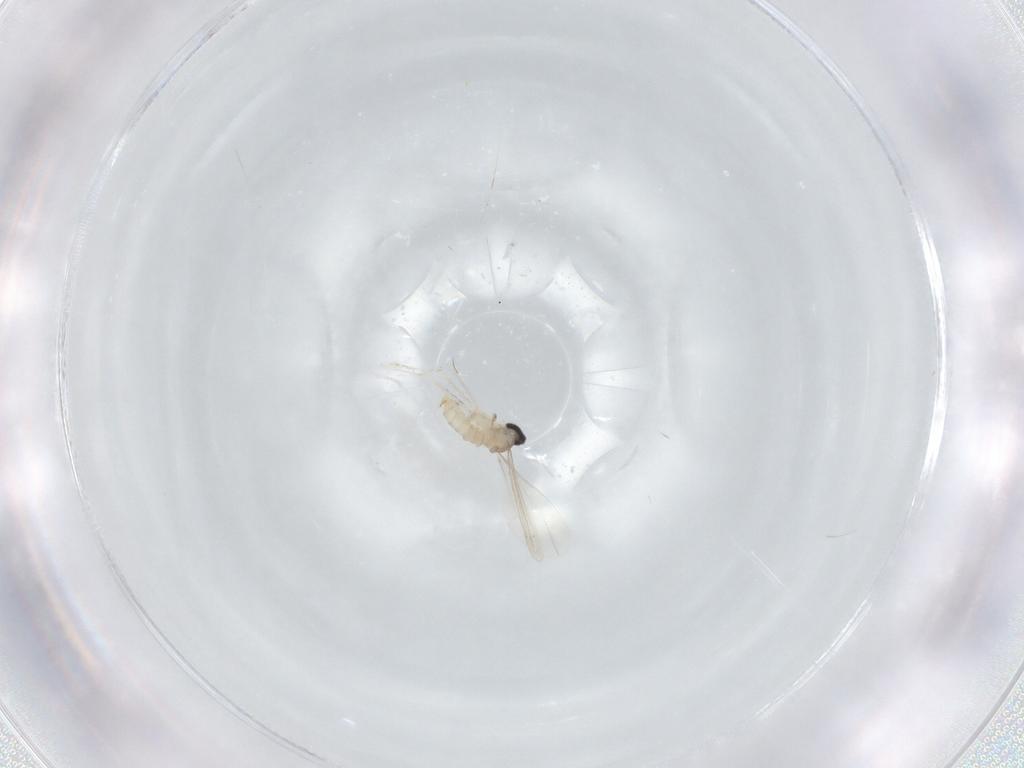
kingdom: Animalia
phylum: Arthropoda
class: Insecta
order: Diptera
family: Cecidomyiidae
